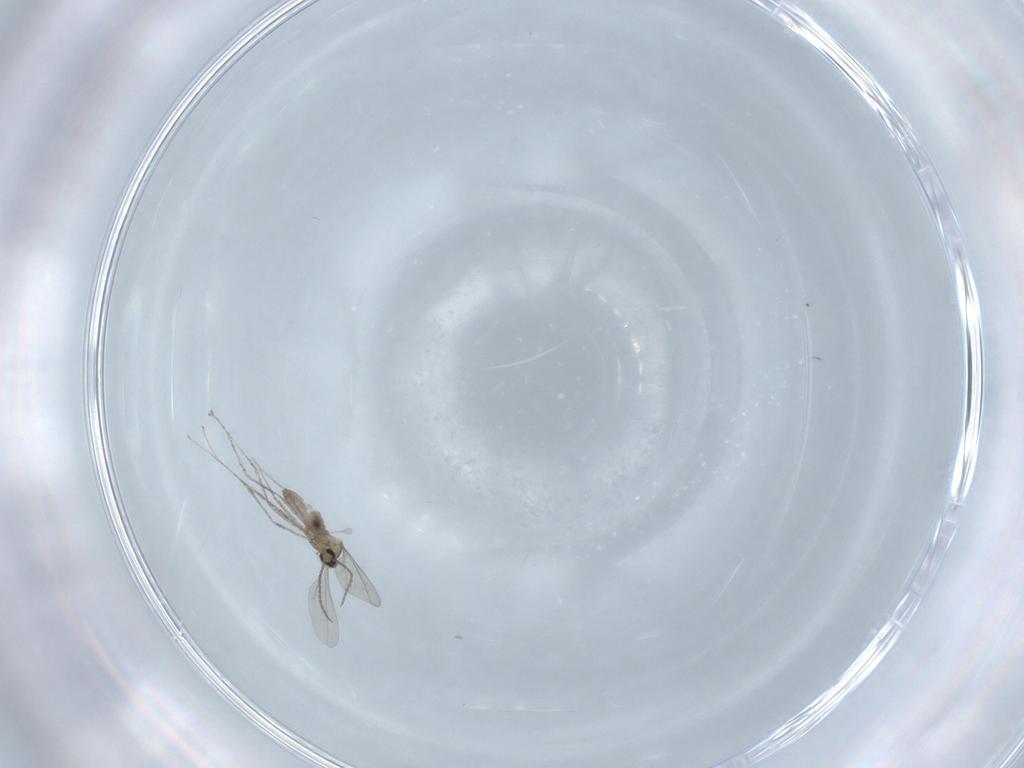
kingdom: Animalia
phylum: Arthropoda
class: Insecta
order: Diptera
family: Cecidomyiidae
